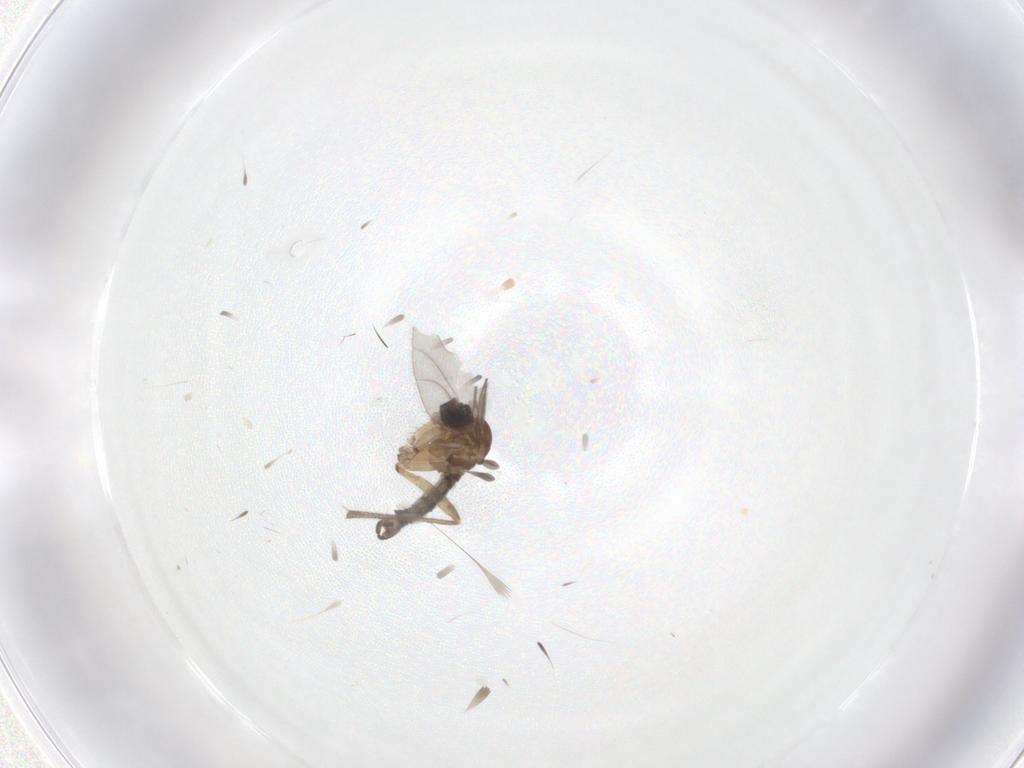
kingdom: Animalia
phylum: Arthropoda
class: Insecta
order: Diptera
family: Sciaridae
